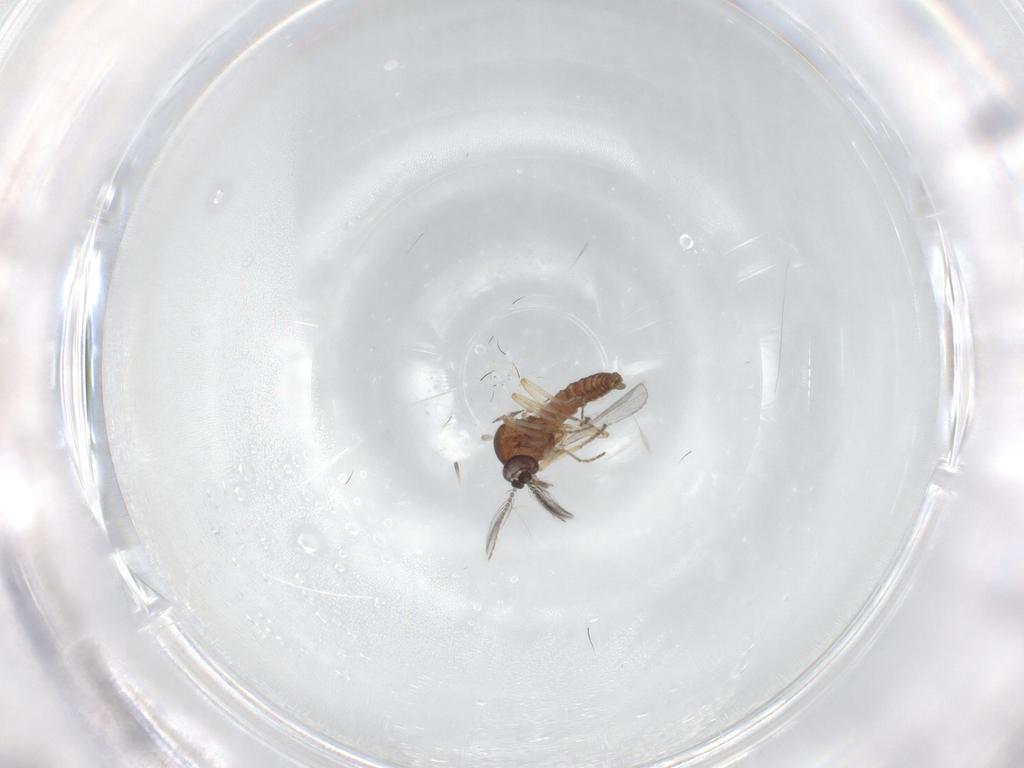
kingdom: Animalia
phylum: Arthropoda
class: Insecta
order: Diptera
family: Ceratopogonidae
